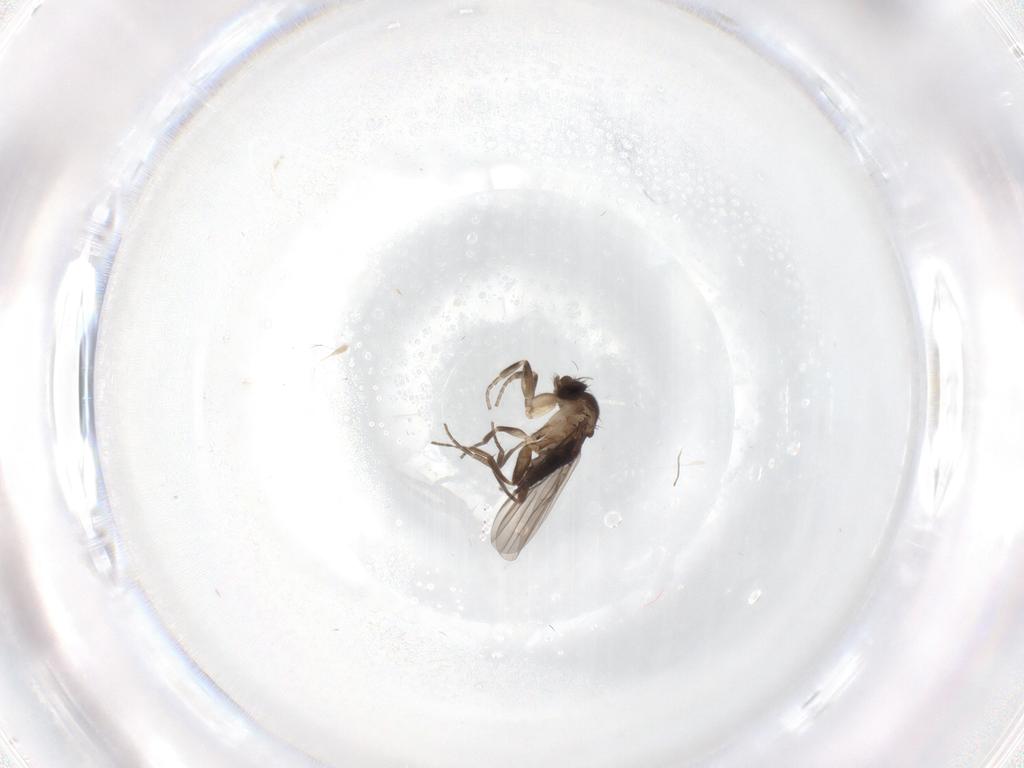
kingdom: Animalia
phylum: Arthropoda
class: Insecta
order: Diptera
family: Phoridae
